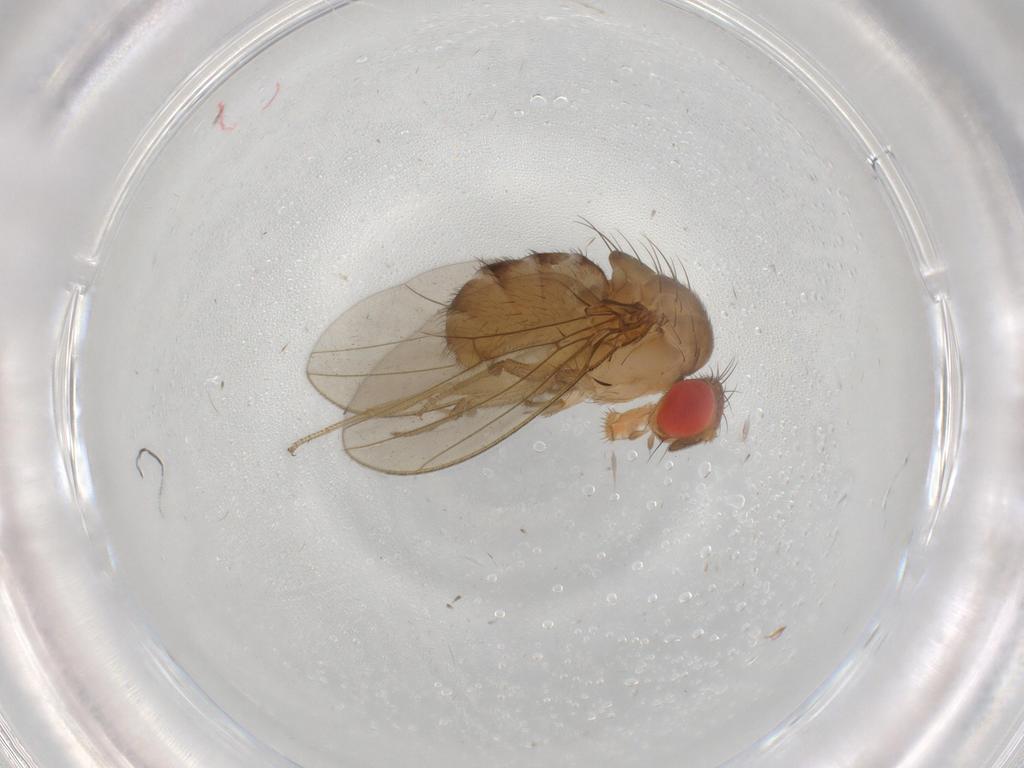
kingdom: Animalia
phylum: Arthropoda
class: Insecta
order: Diptera
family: Drosophilidae
